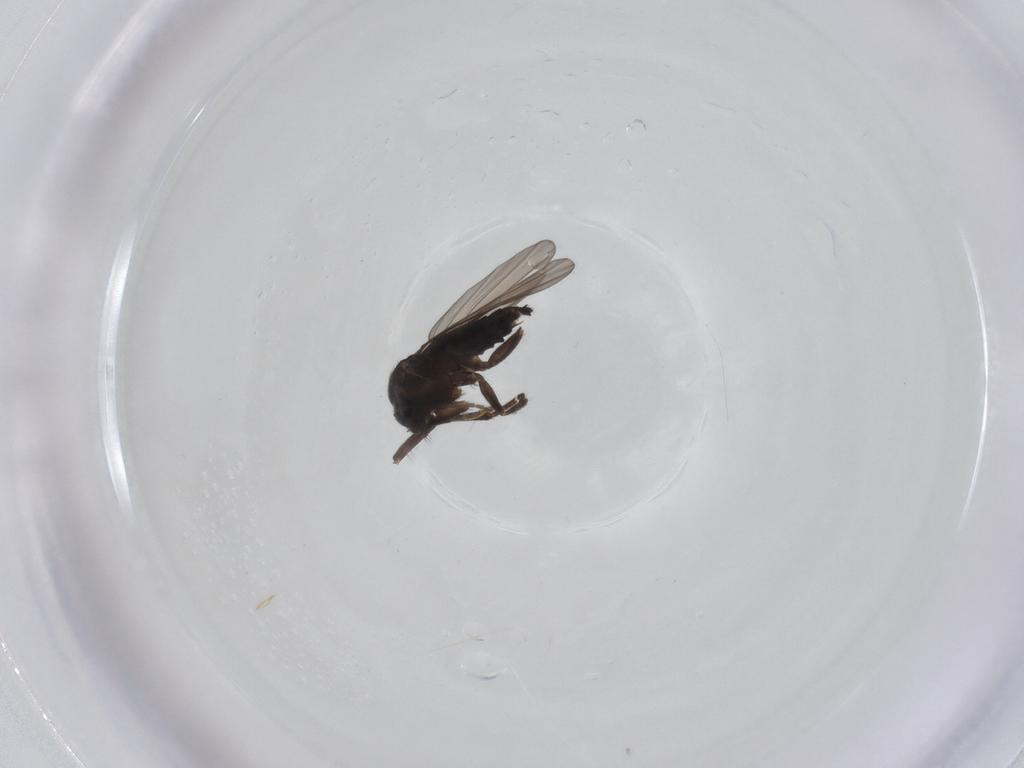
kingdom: Animalia
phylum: Arthropoda
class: Insecta
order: Diptera
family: Phoridae
